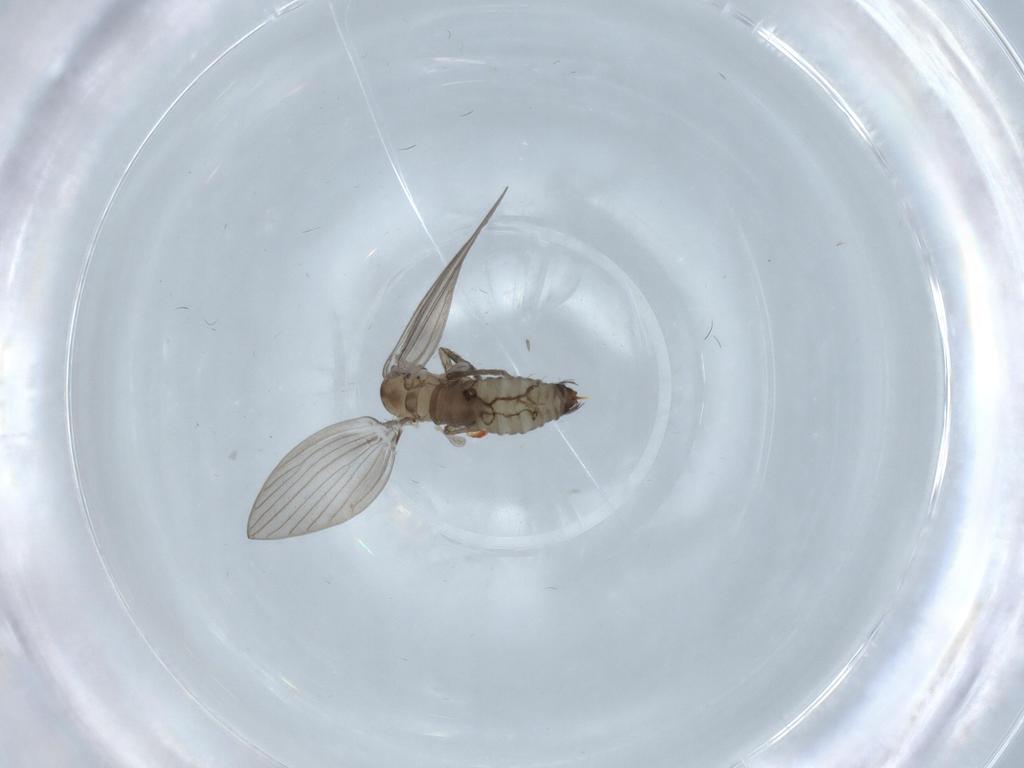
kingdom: Animalia
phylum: Arthropoda
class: Insecta
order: Diptera
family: Psychodidae
